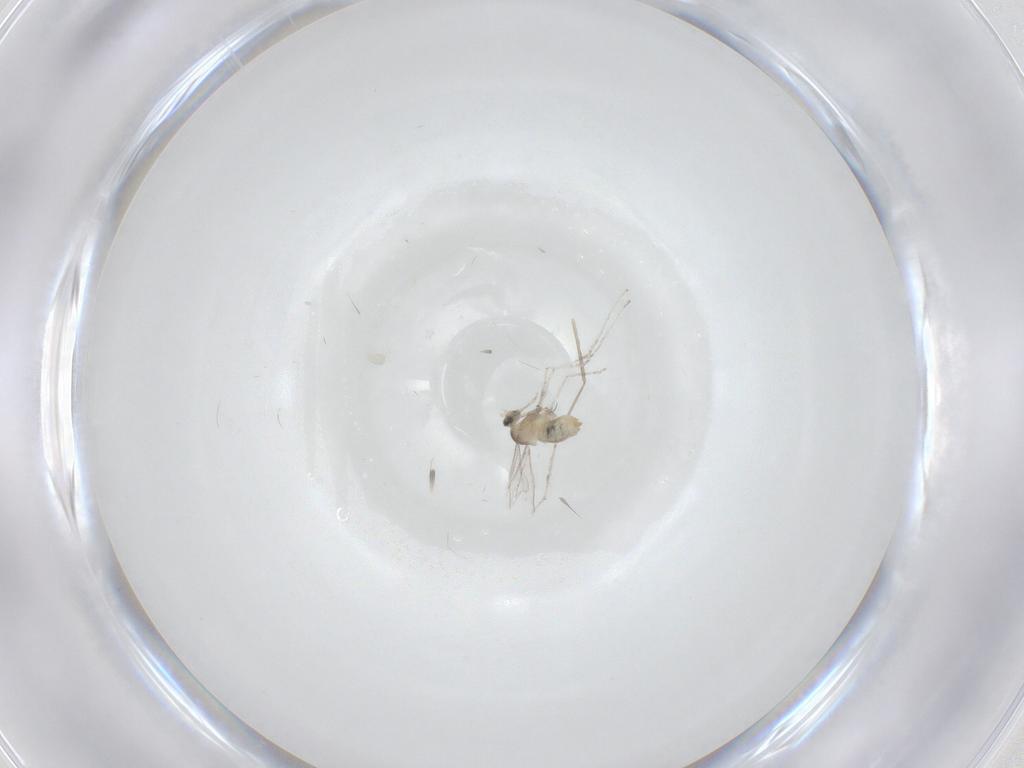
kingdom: Animalia
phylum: Arthropoda
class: Insecta
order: Diptera
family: Cecidomyiidae
